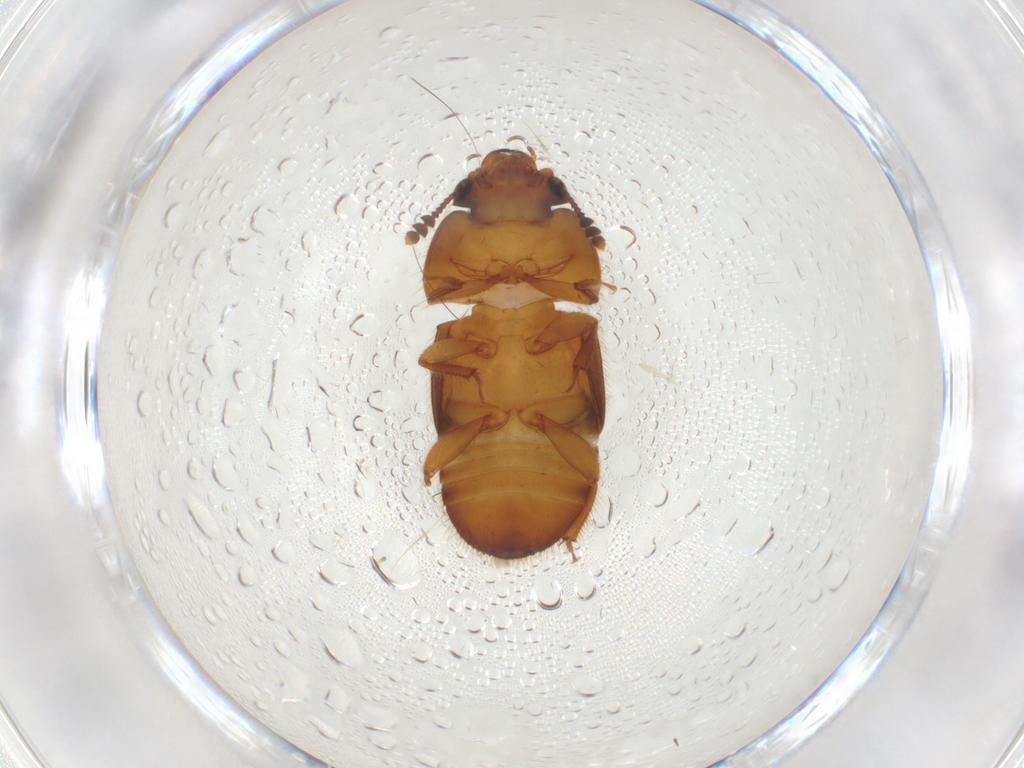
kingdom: Animalia
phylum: Arthropoda
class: Insecta
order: Coleoptera
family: Nitidulidae
